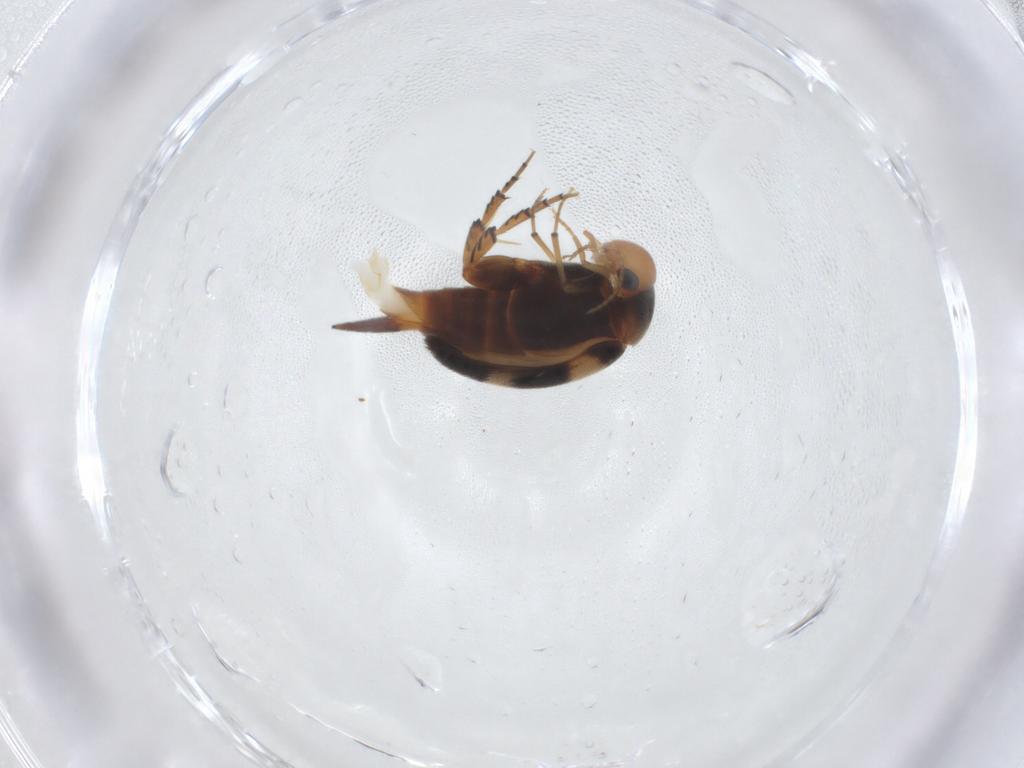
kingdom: Animalia
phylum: Arthropoda
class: Insecta
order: Coleoptera
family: Mordellidae
